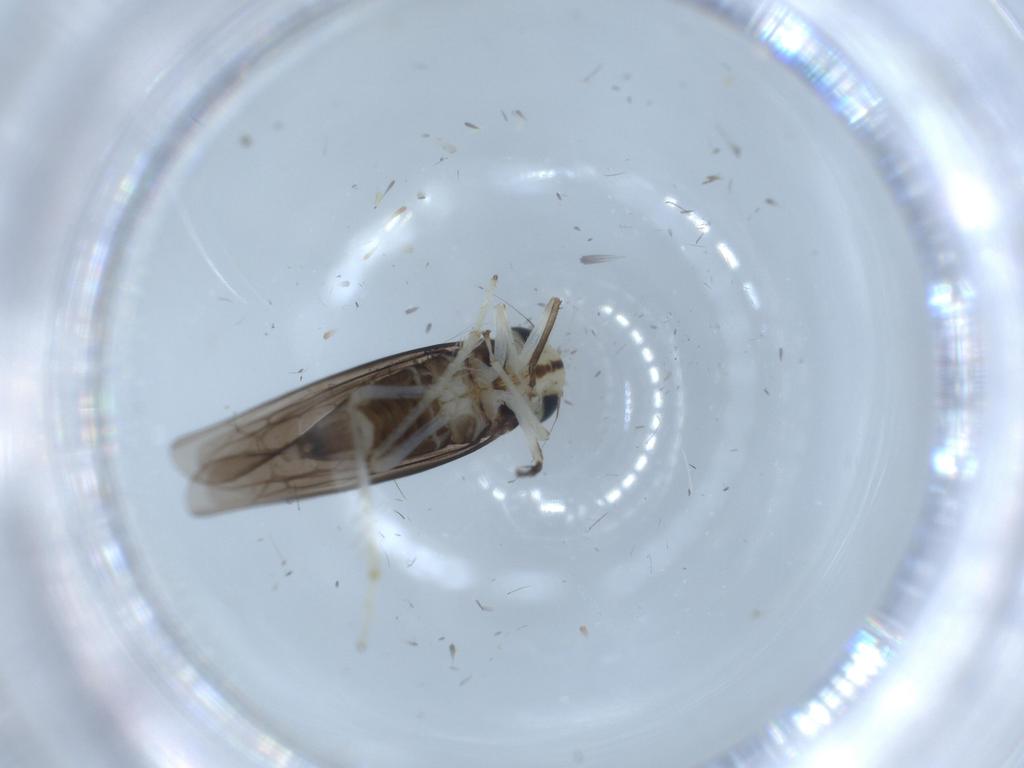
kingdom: Animalia
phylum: Arthropoda
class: Insecta
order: Hemiptera
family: Cicadellidae
